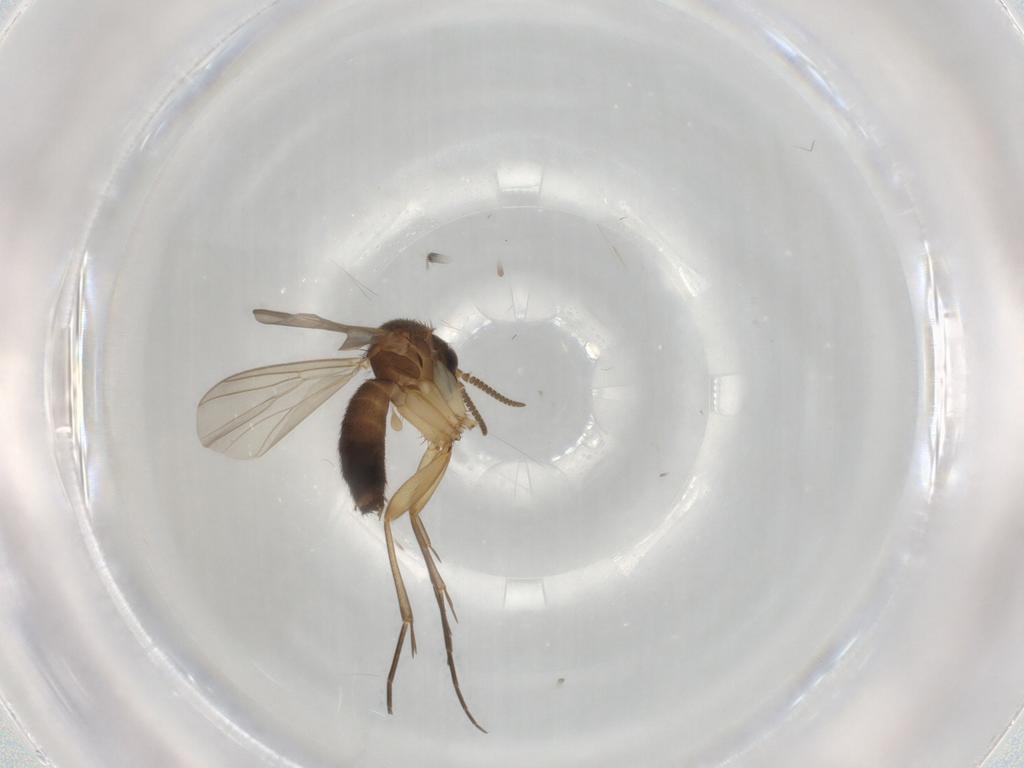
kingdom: Animalia
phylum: Arthropoda
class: Insecta
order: Diptera
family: Mycetophilidae
